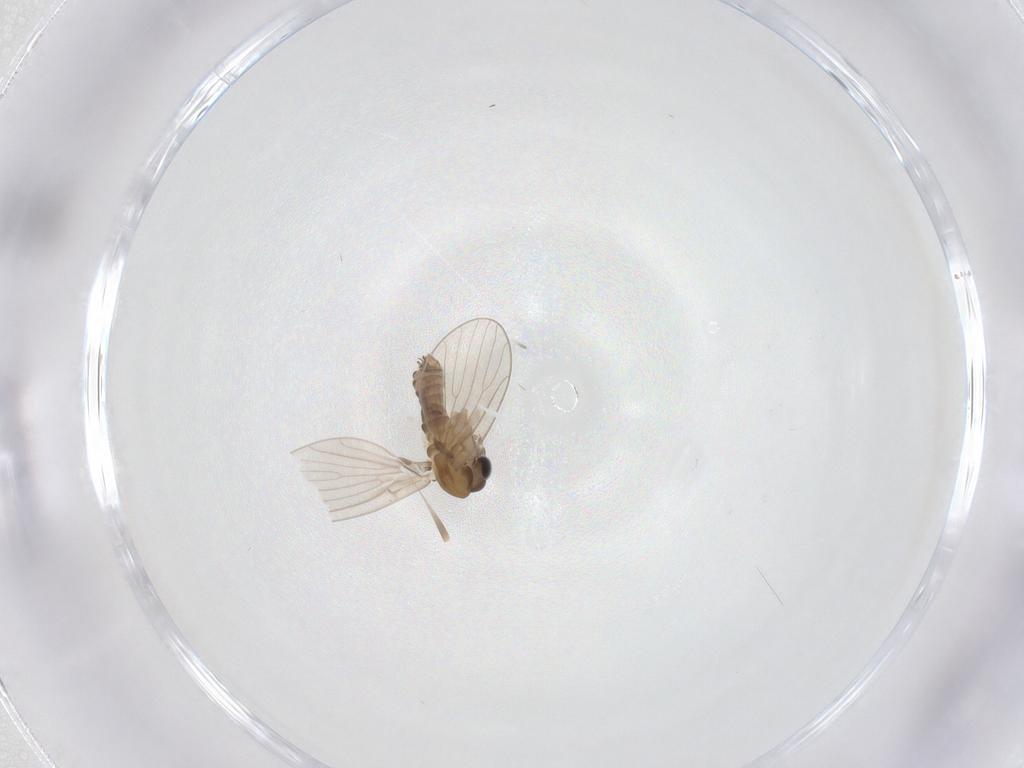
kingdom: Animalia
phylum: Arthropoda
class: Insecta
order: Diptera
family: Psychodidae
